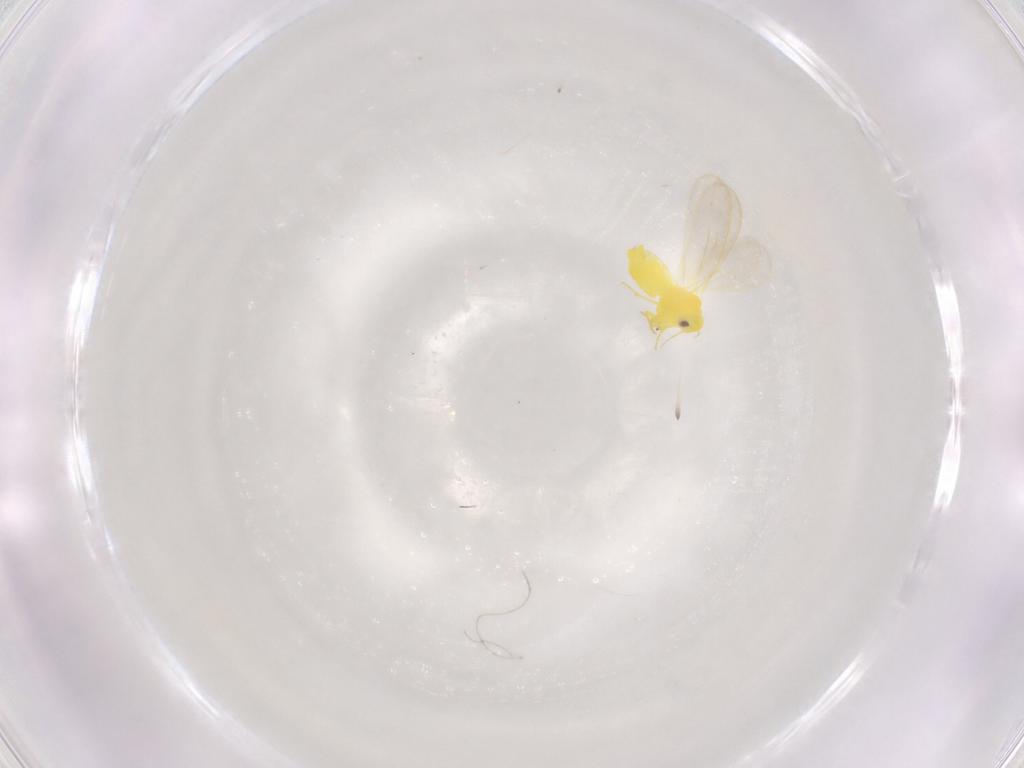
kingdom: Animalia
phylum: Arthropoda
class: Insecta
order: Hemiptera
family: Aleyrodidae
